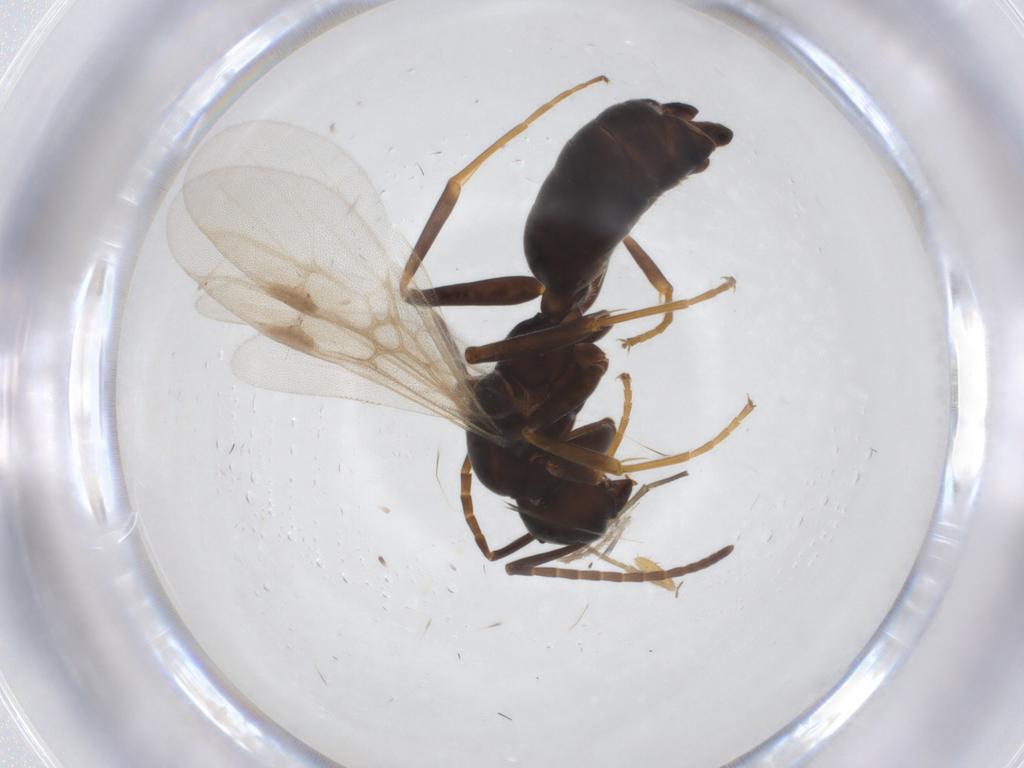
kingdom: Animalia
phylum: Arthropoda
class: Insecta
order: Hymenoptera
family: Formicidae
